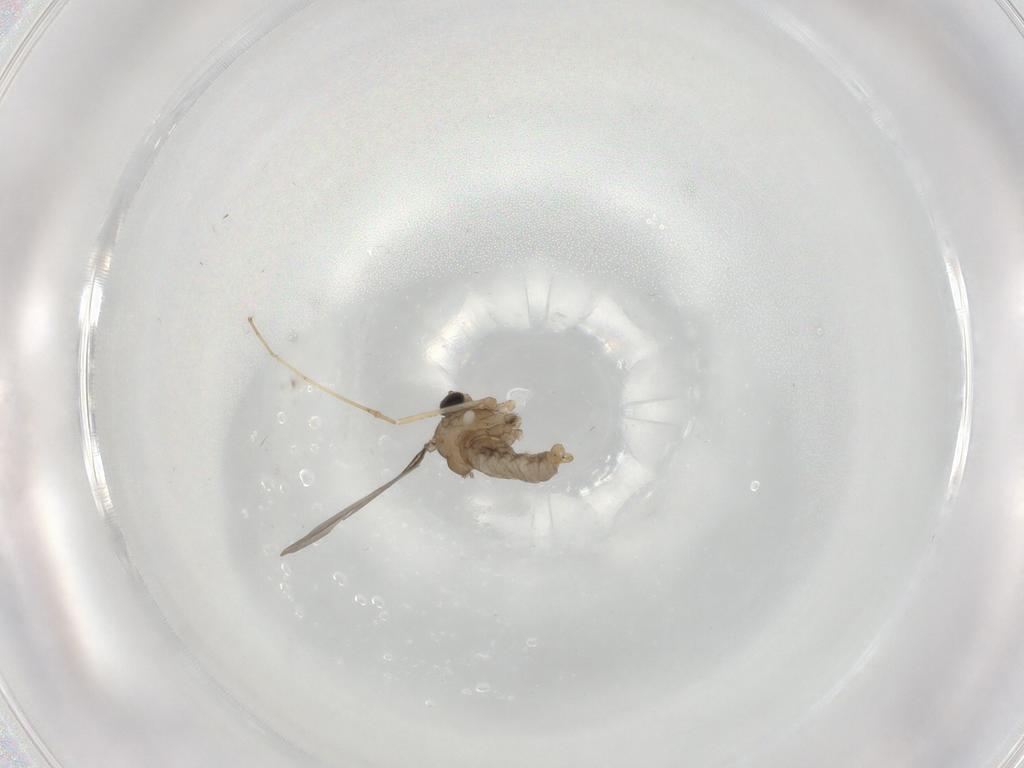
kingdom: Animalia
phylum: Arthropoda
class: Insecta
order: Diptera
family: Cecidomyiidae
